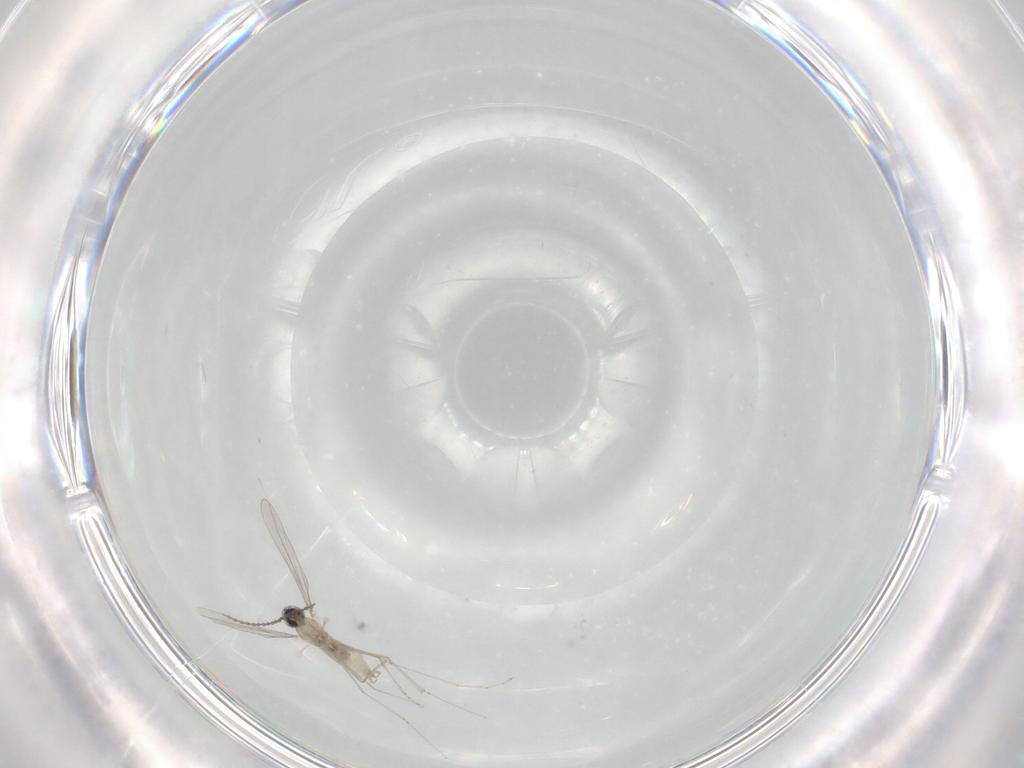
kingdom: Animalia
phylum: Arthropoda
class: Insecta
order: Diptera
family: Cecidomyiidae
